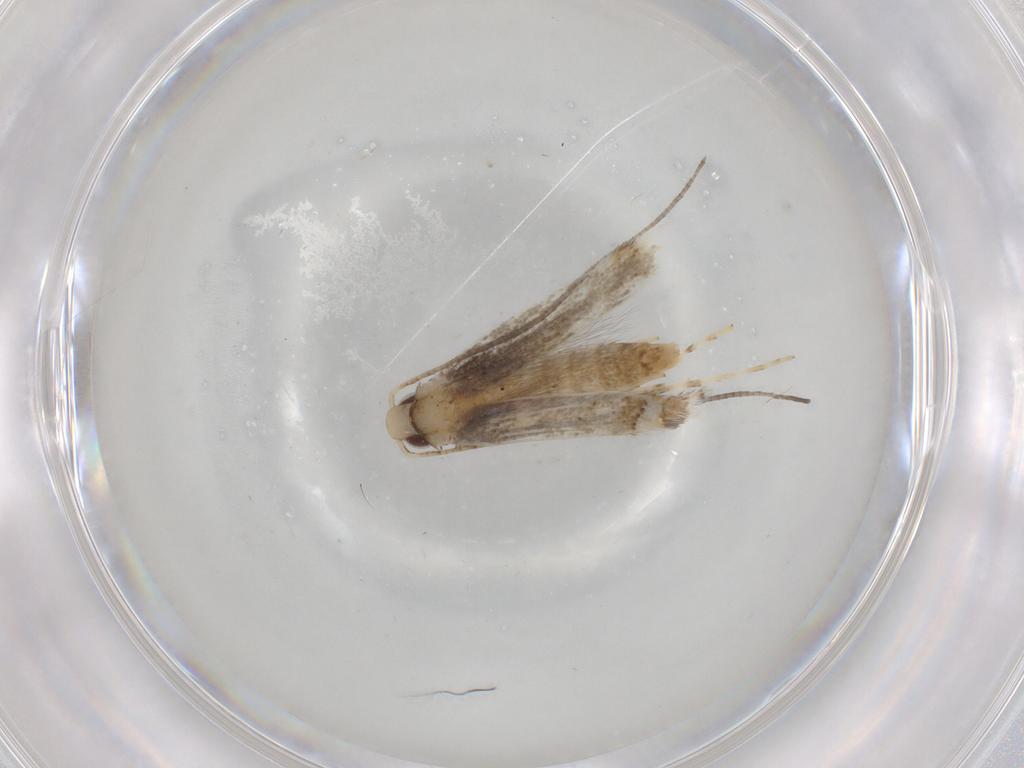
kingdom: Animalia
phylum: Arthropoda
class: Insecta
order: Lepidoptera
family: Gracillariidae
